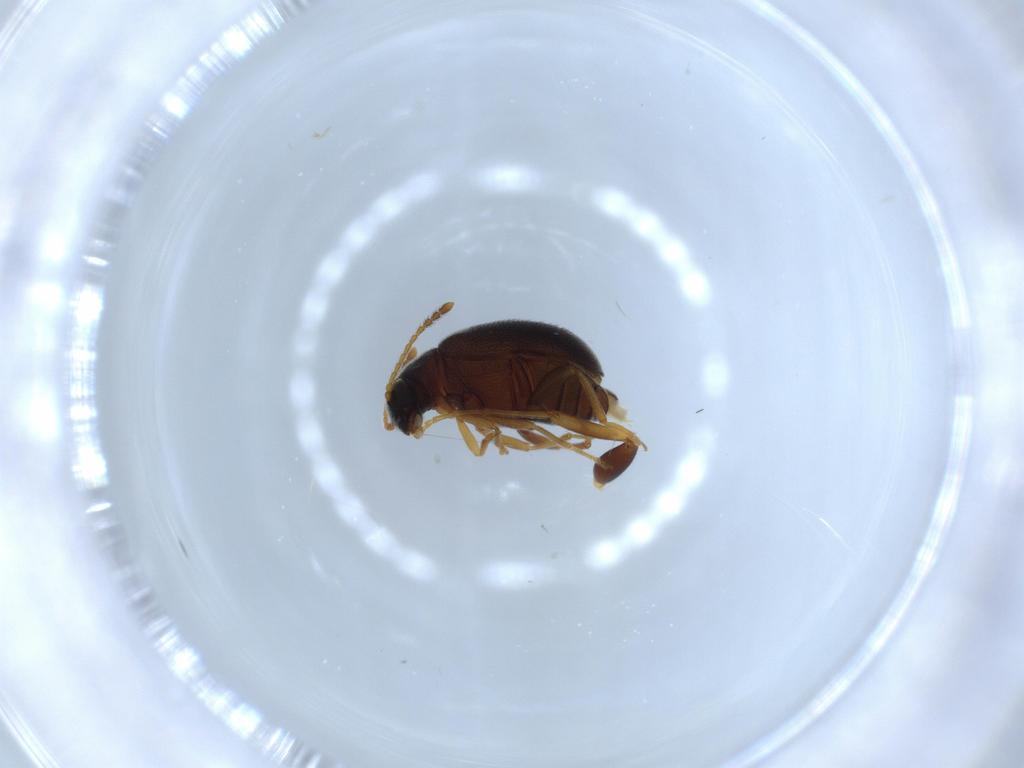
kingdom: Animalia
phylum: Arthropoda
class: Insecta
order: Coleoptera
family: Aderidae
